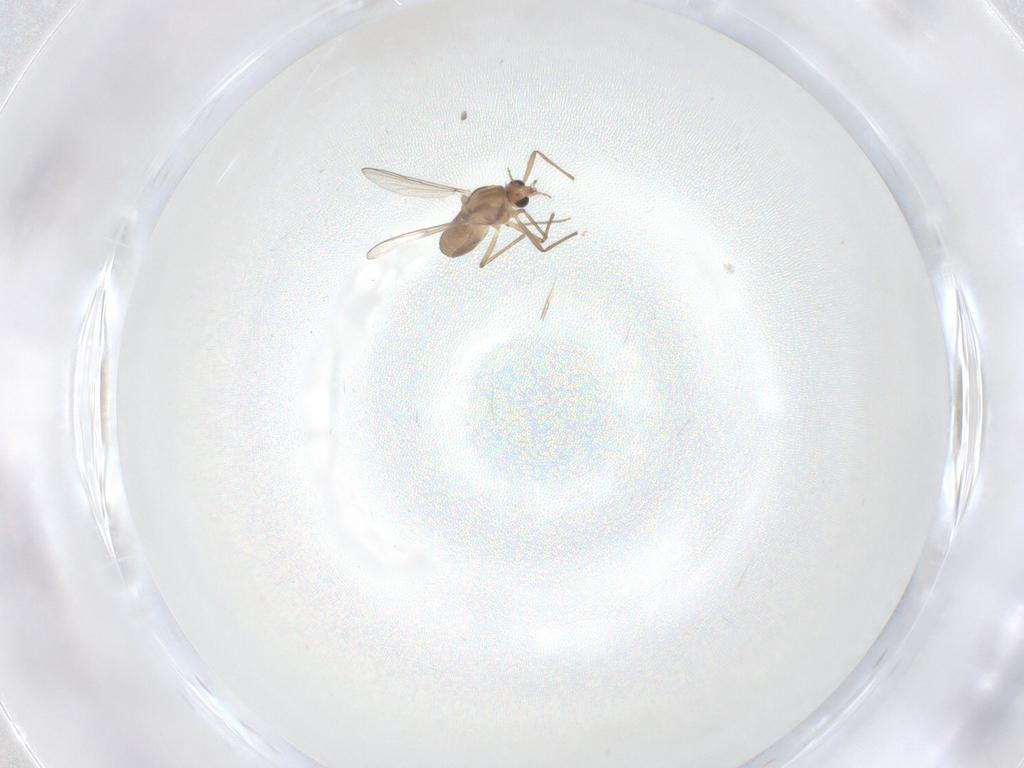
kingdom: Animalia
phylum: Arthropoda
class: Insecta
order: Diptera
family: Chironomidae
